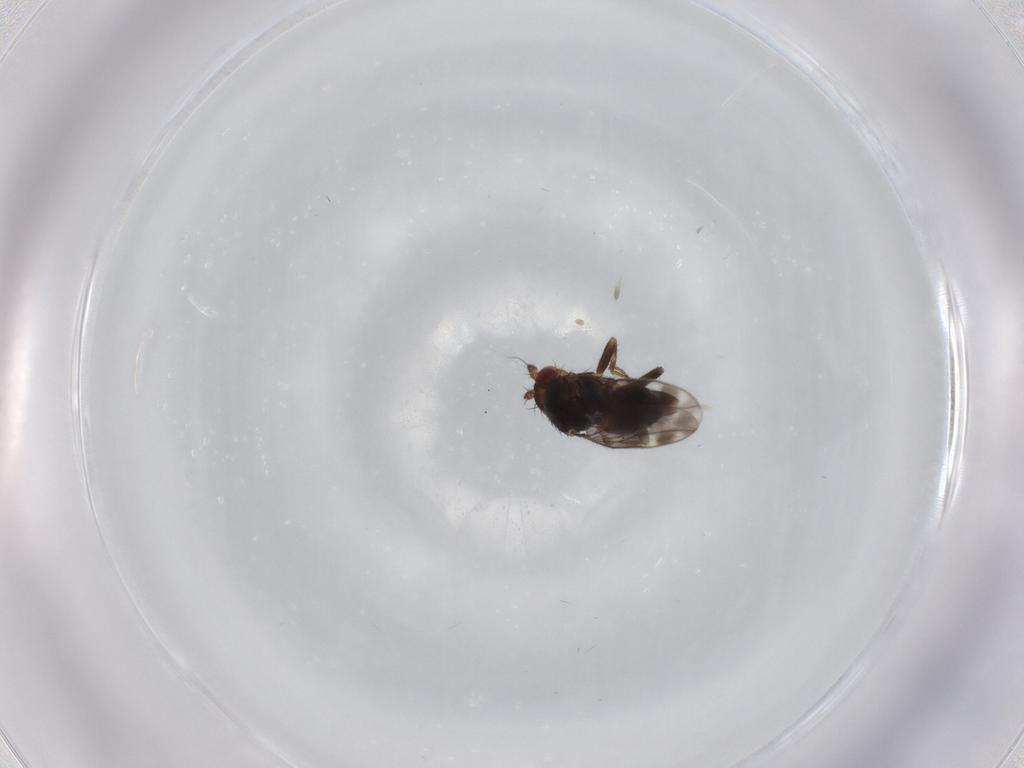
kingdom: Animalia
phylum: Arthropoda
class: Insecta
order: Diptera
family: Sphaeroceridae
